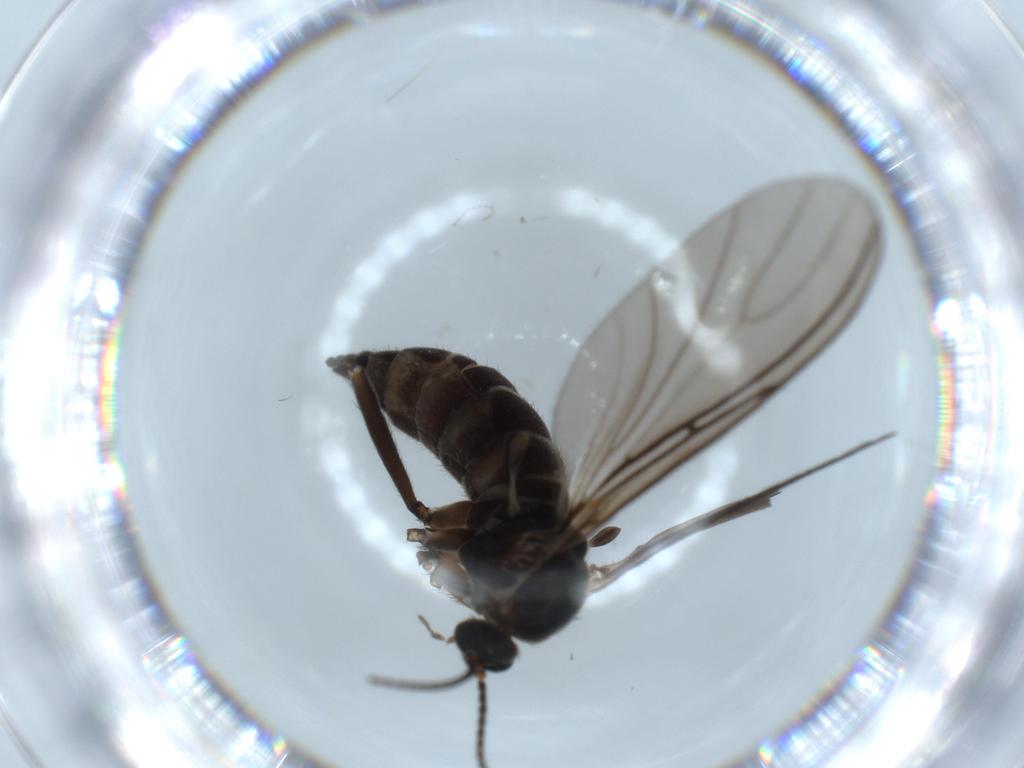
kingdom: Animalia
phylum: Arthropoda
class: Insecta
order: Diptera
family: Sciaridae
